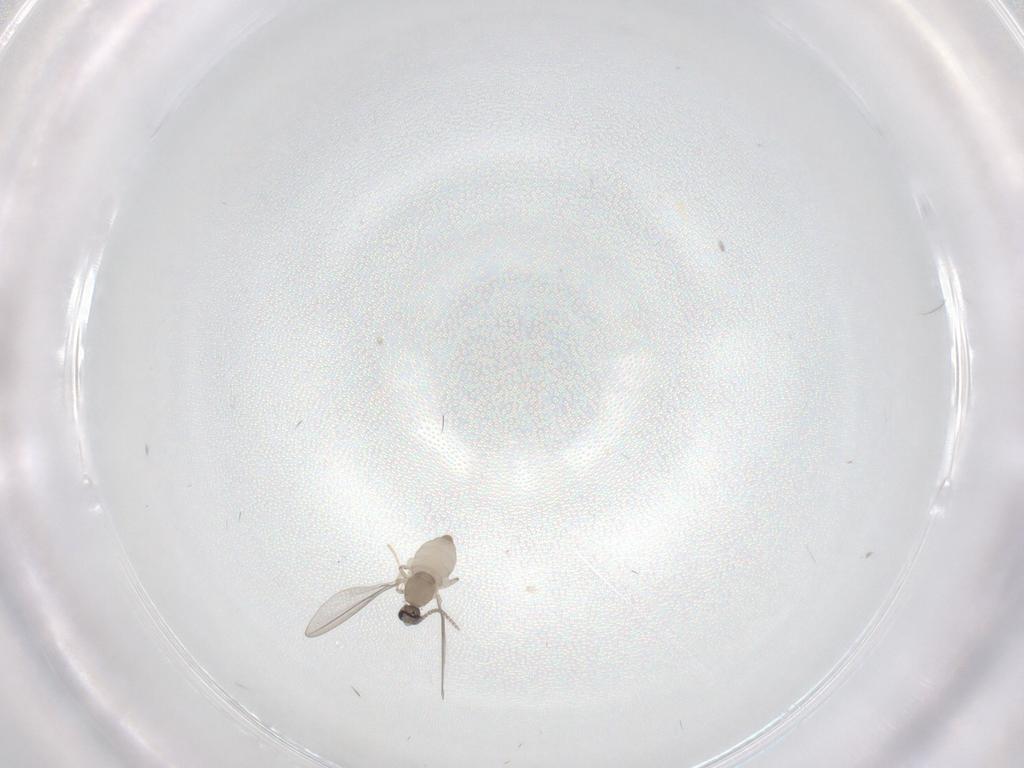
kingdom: Animalia
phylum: Arthropoda
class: Insecta
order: Diptera
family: Cecidomyiidae
